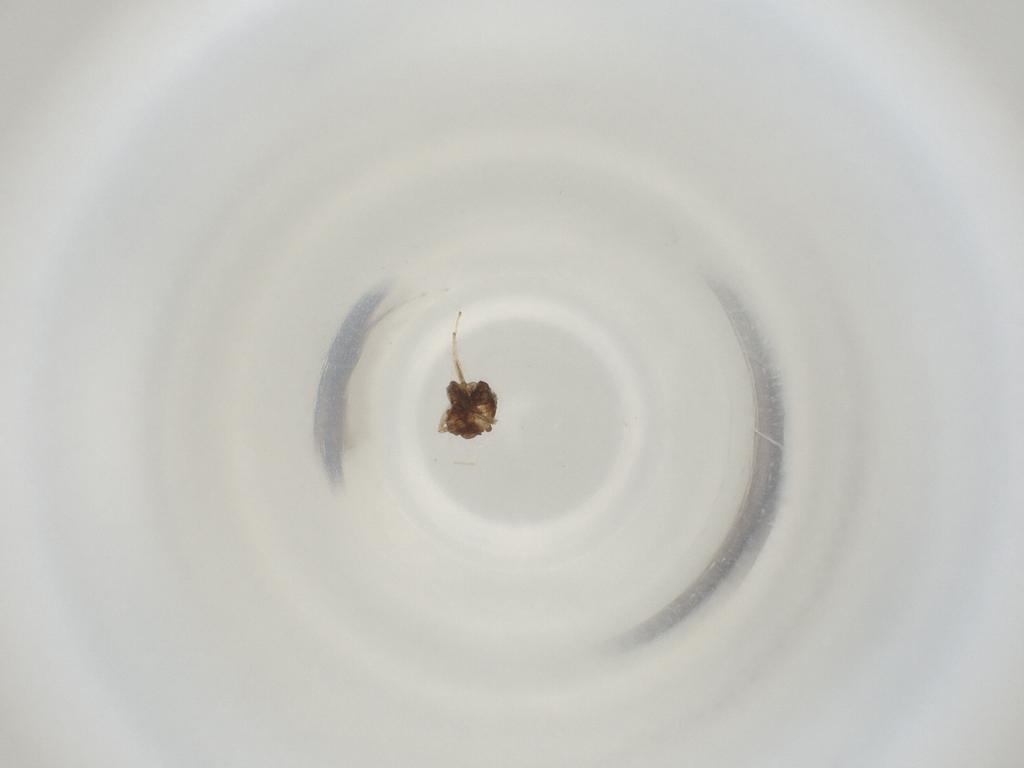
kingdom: Animalia
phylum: Arthropoda
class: Insecta
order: Diptera
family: Cecidomyiidae
